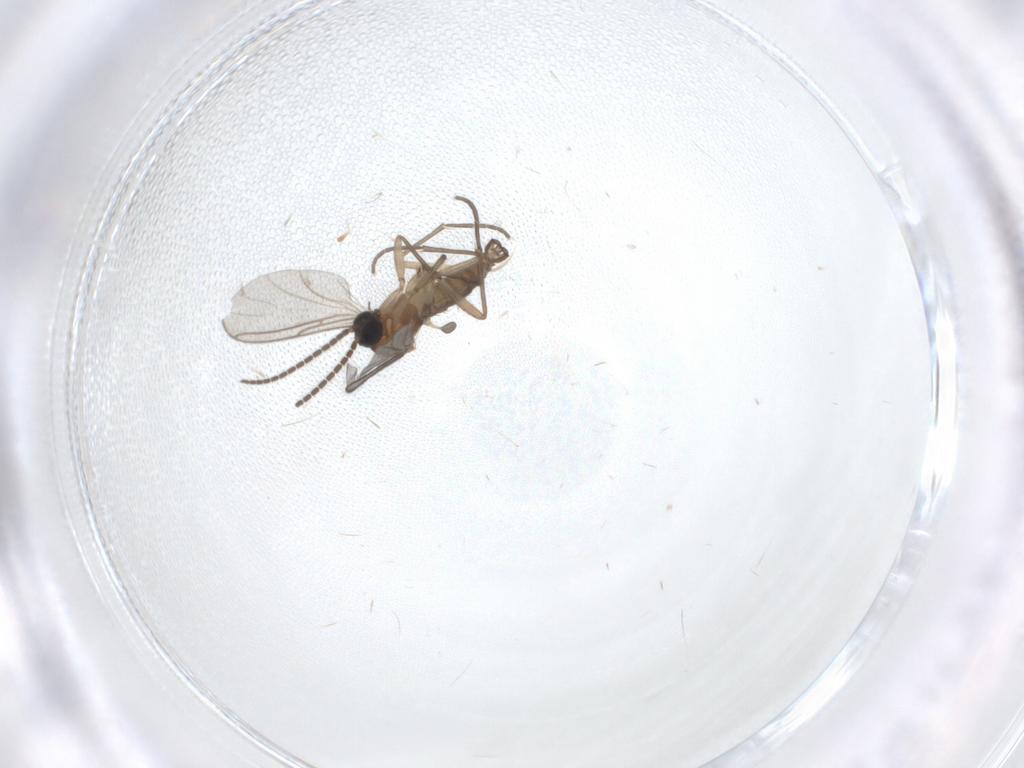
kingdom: Animalia
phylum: Arthropoda
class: Insecta
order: Diptera
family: Sciaridae
